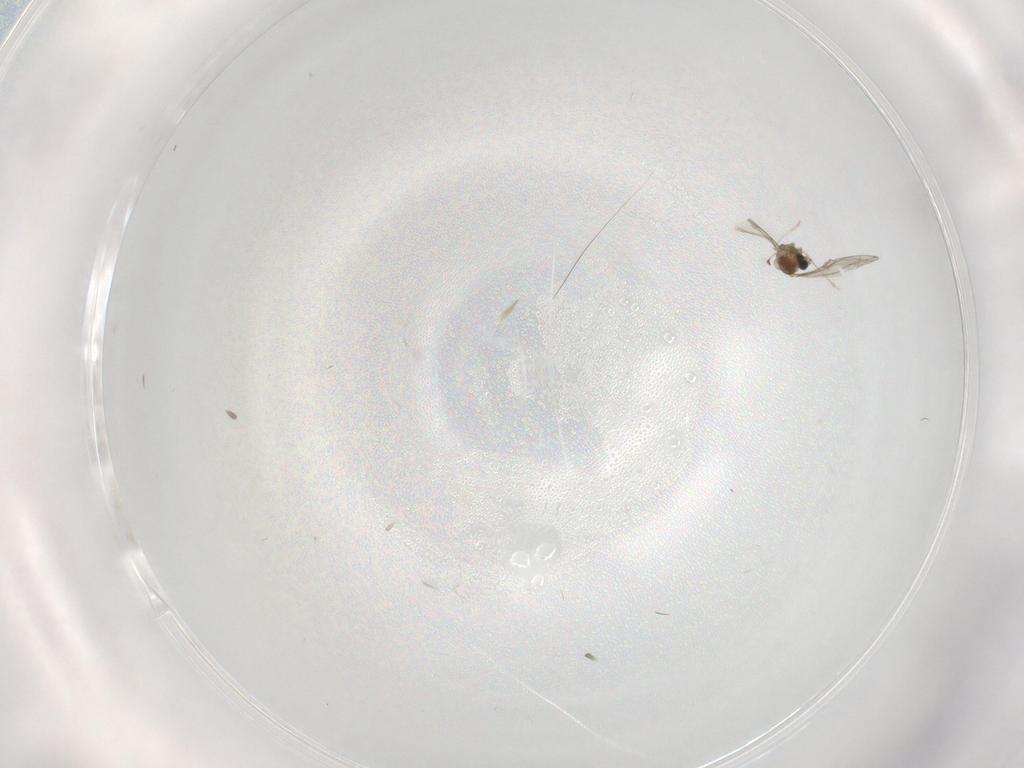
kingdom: Animalia
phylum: Arthropoda
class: Insecta
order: Diptera
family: Cecidomyiidae
